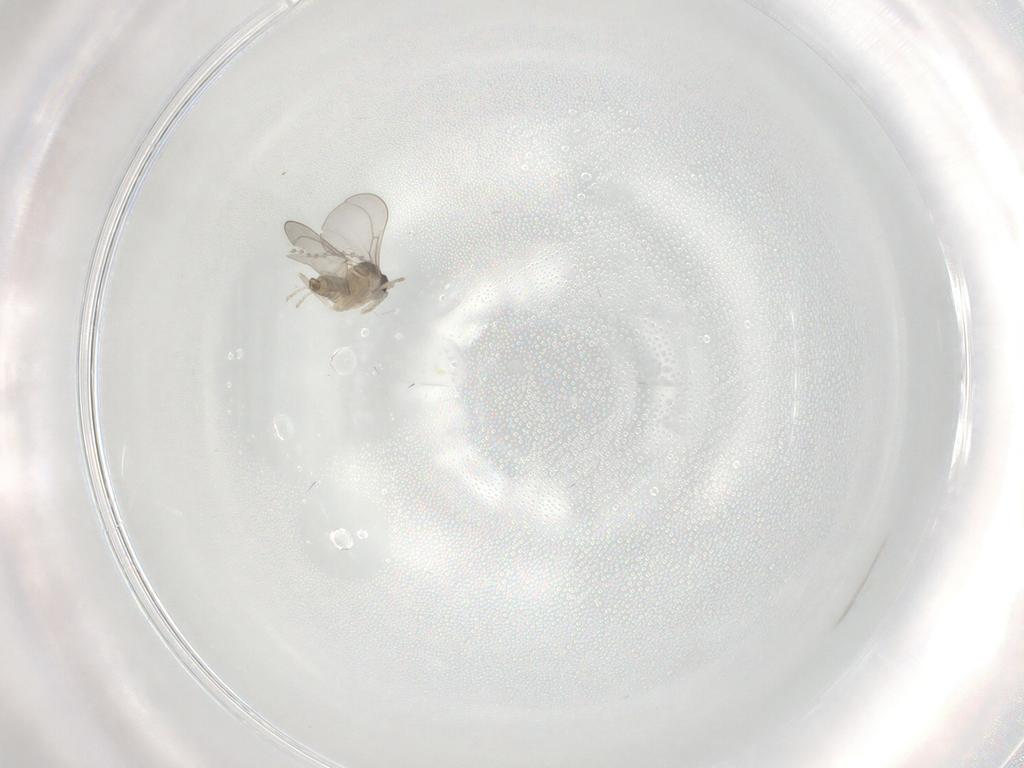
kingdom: Animalia
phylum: Arthropoda
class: Insecta
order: Diptera
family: Cecidomyiidae
